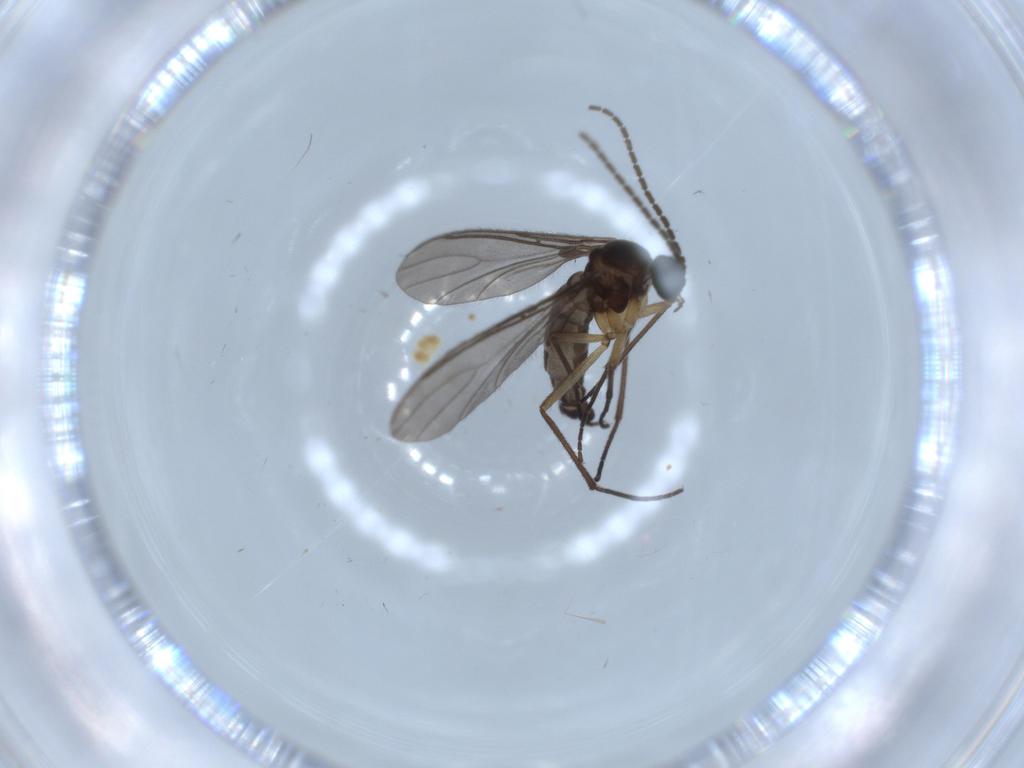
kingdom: Animalia
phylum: Arthropoda
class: Insecta
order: Diptera
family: Sciaridae
